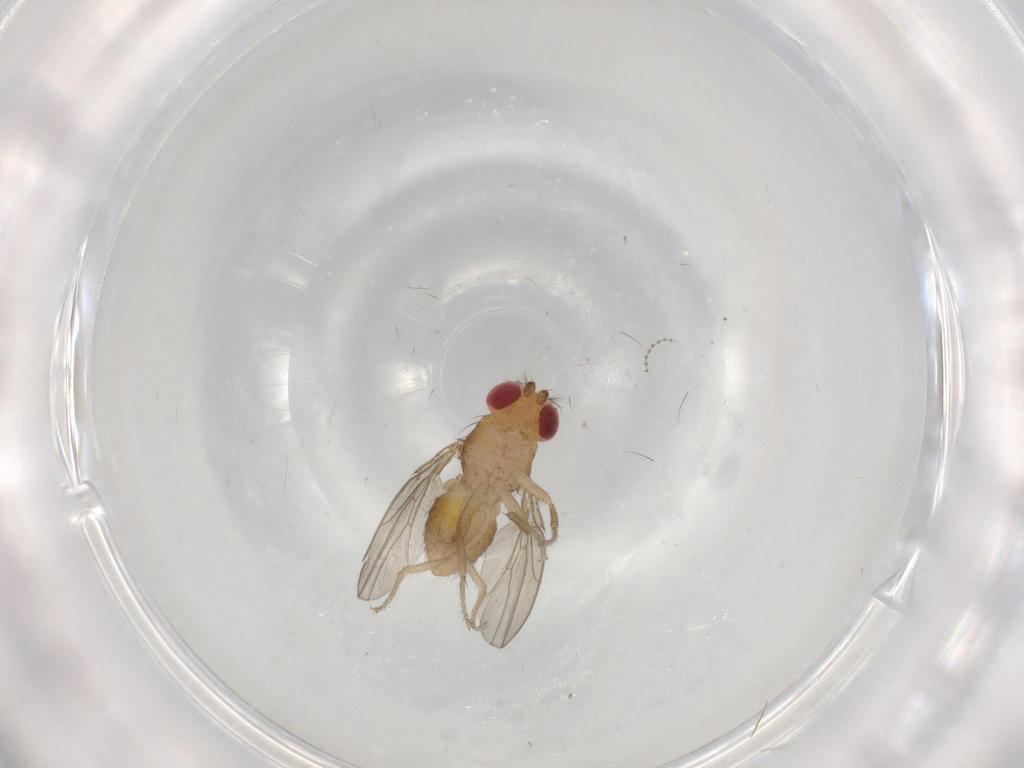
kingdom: Animalia
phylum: Arthropoda
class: Insecta
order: Diptera
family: Drosophilidae
